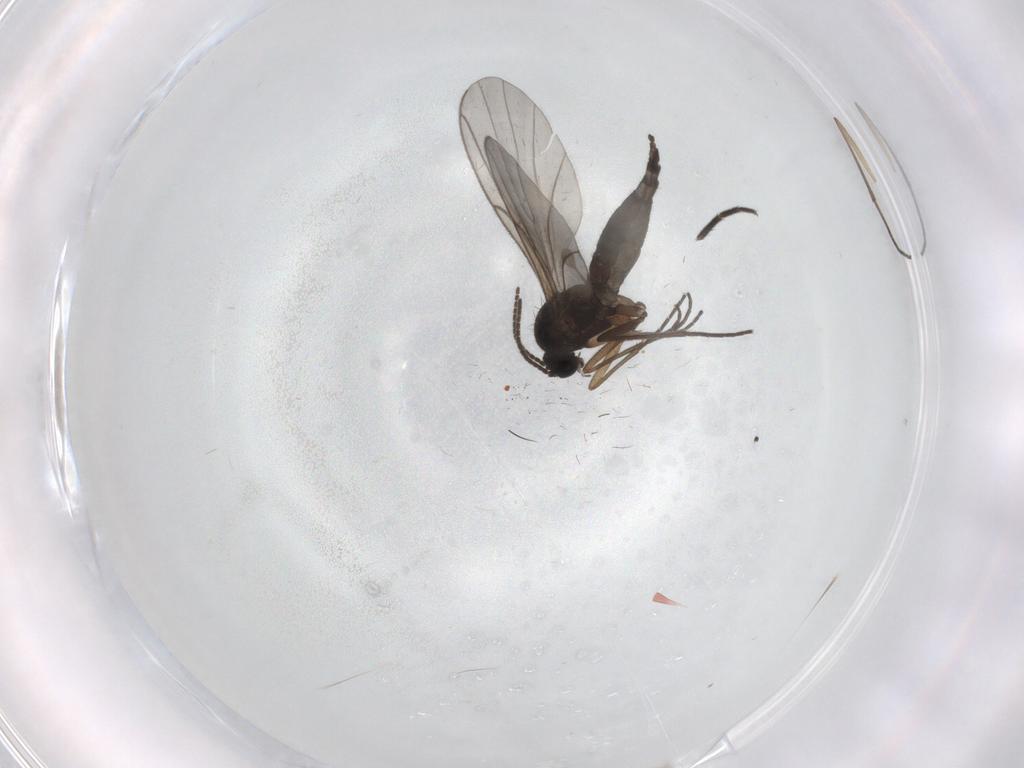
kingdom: Animalia
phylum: Arthropoda
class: Insecta
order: Diptera
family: Sciaridae
